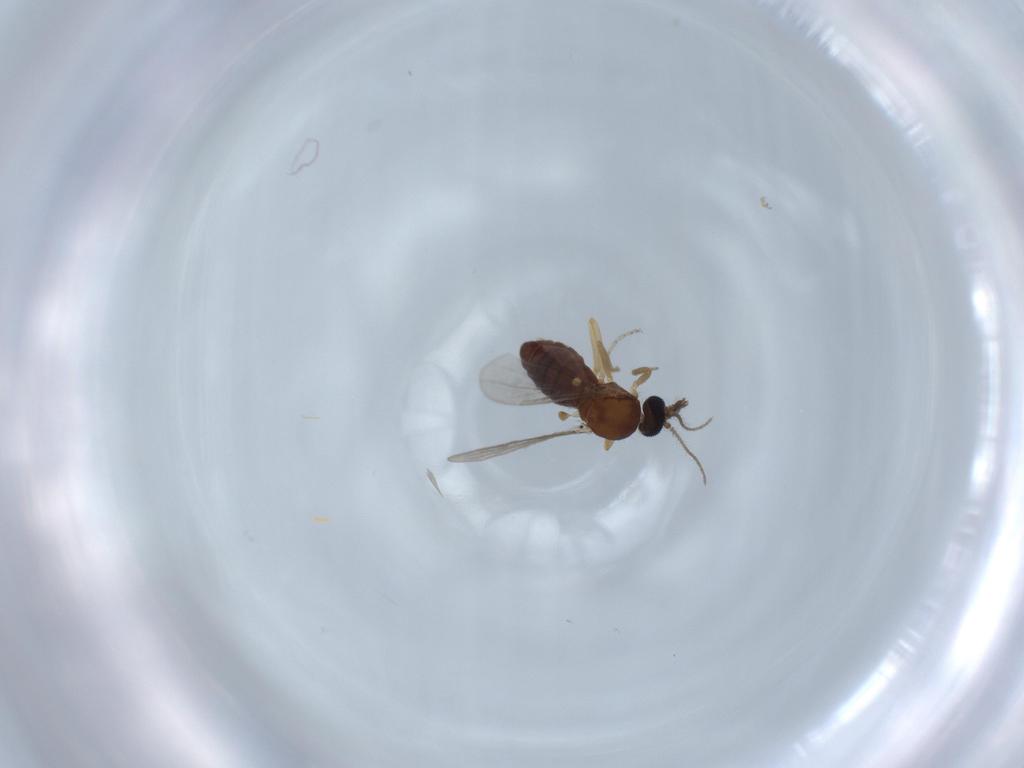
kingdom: Animalia
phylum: Arthropoda
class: Insecta
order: Diptera
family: Ceratopogonidae
